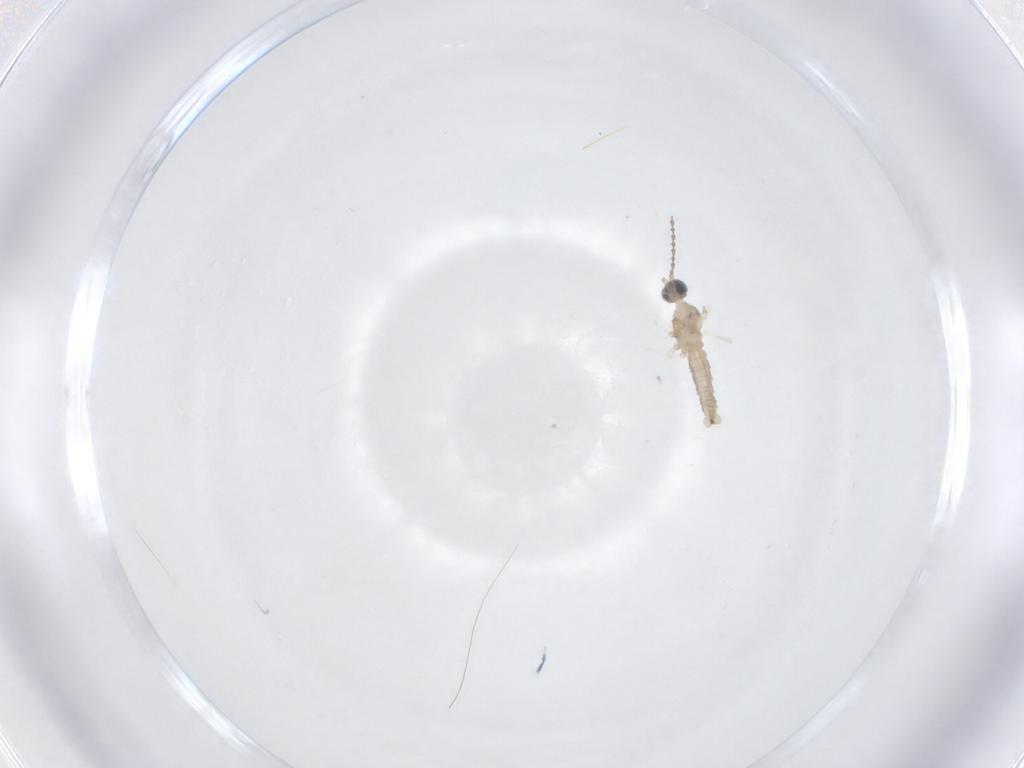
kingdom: Animalia
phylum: Arthropoda
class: Insecta
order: Diptera
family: Cecidomyiidae
